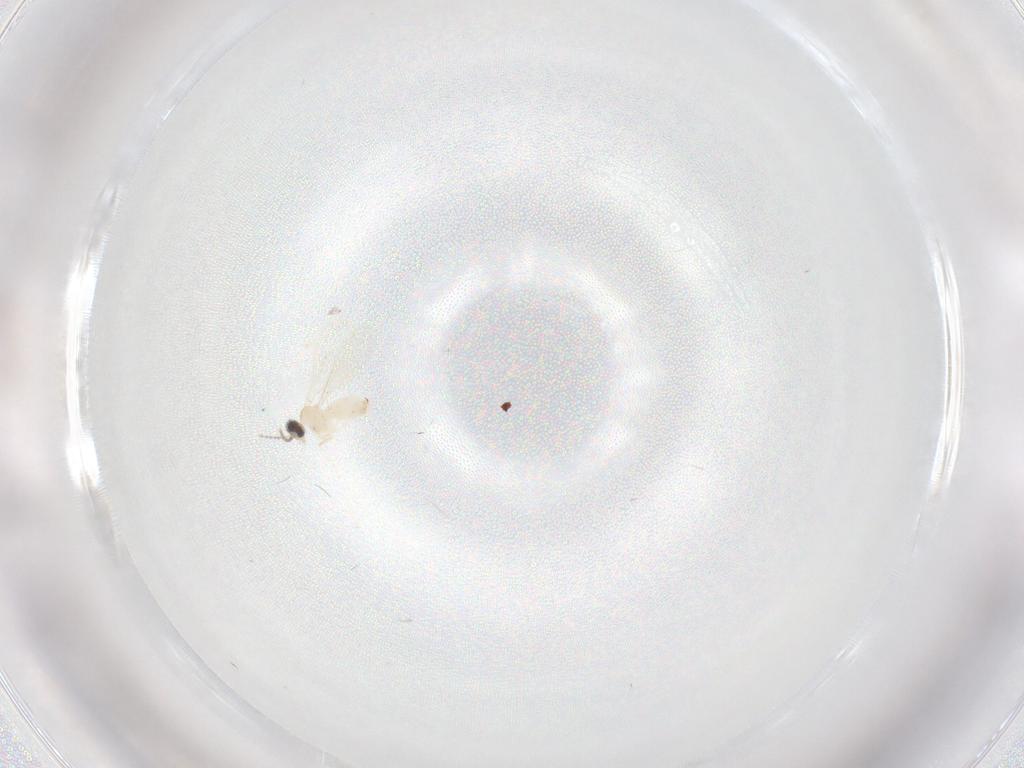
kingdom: Animalia
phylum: Arthropoda
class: Insecta
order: Diptera
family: Cecidomyiidae
